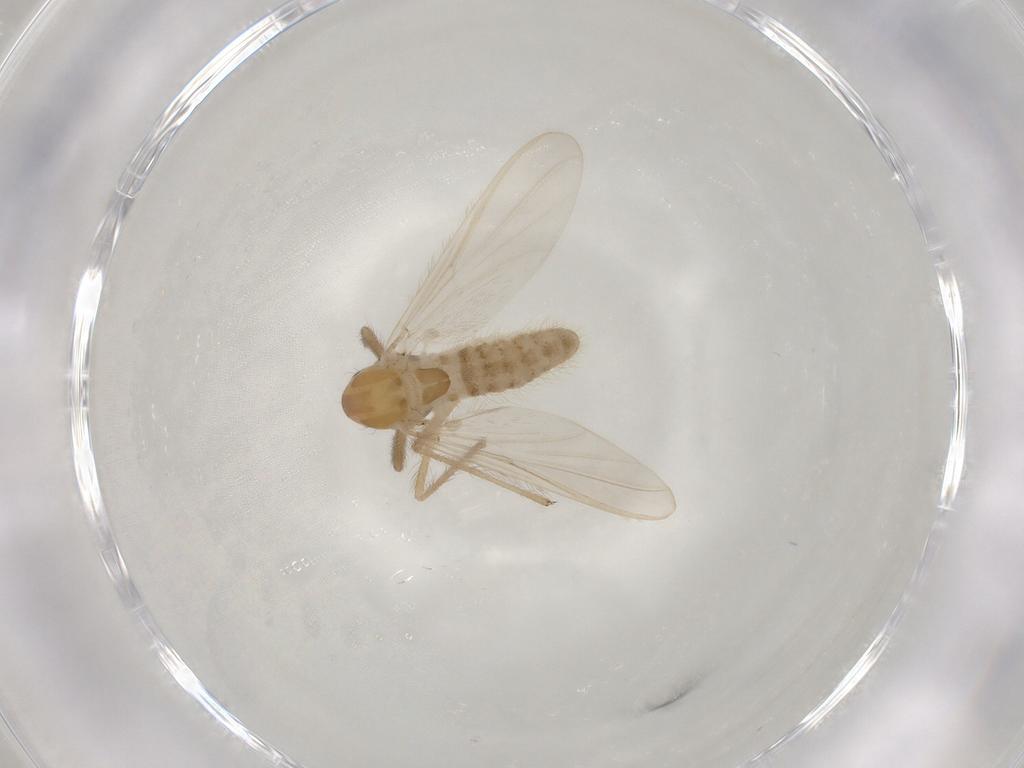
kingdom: Animalia
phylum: Arthropoda
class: Insecta
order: Diptera
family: Chironomidae
